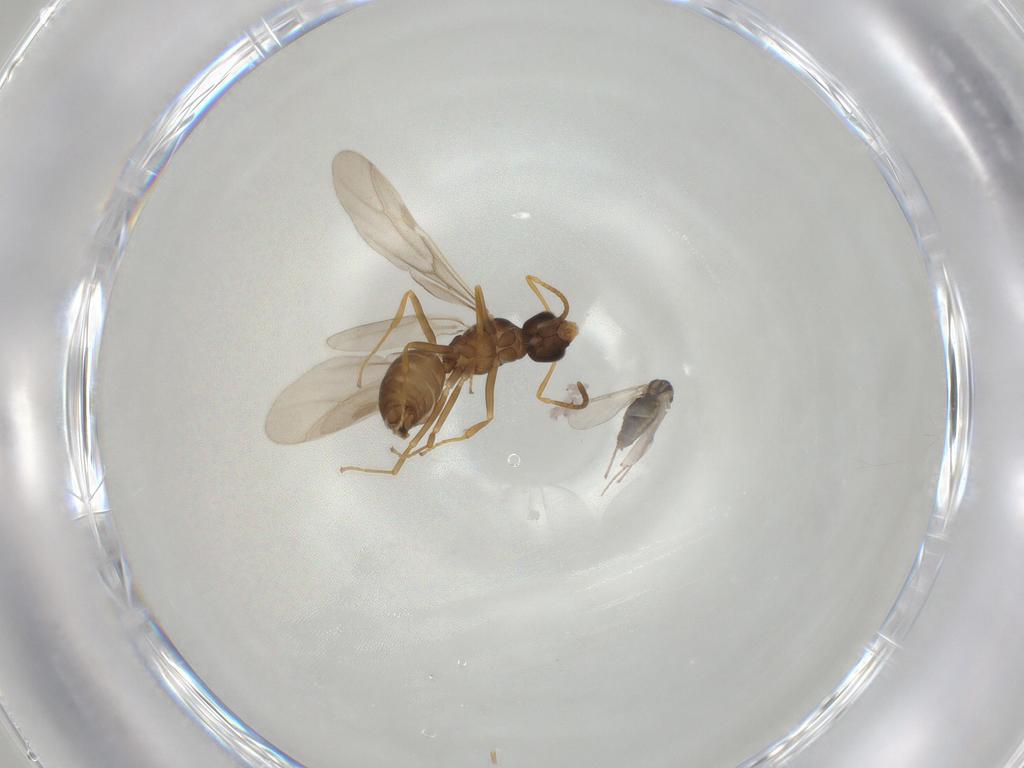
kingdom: Animalia
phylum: Arthropoda
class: Insecta
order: Hymenoptera
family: Formicidae
